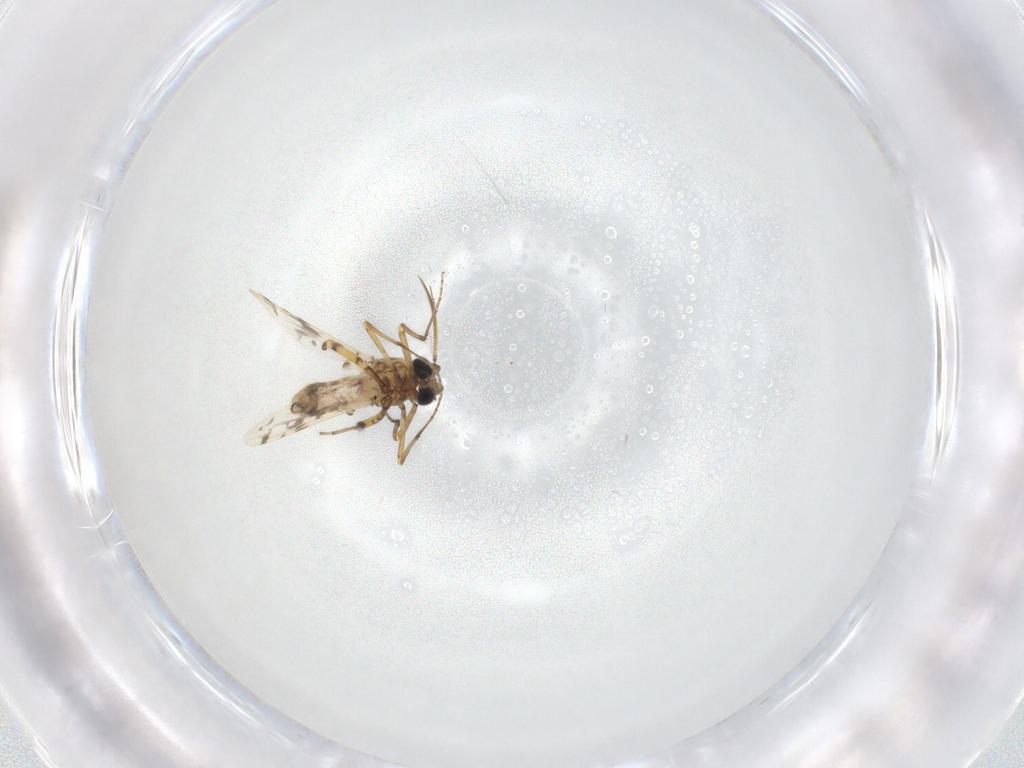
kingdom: Animalia
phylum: Arthropoda
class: Insecta
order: Diptera
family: Ceratopogonidae
